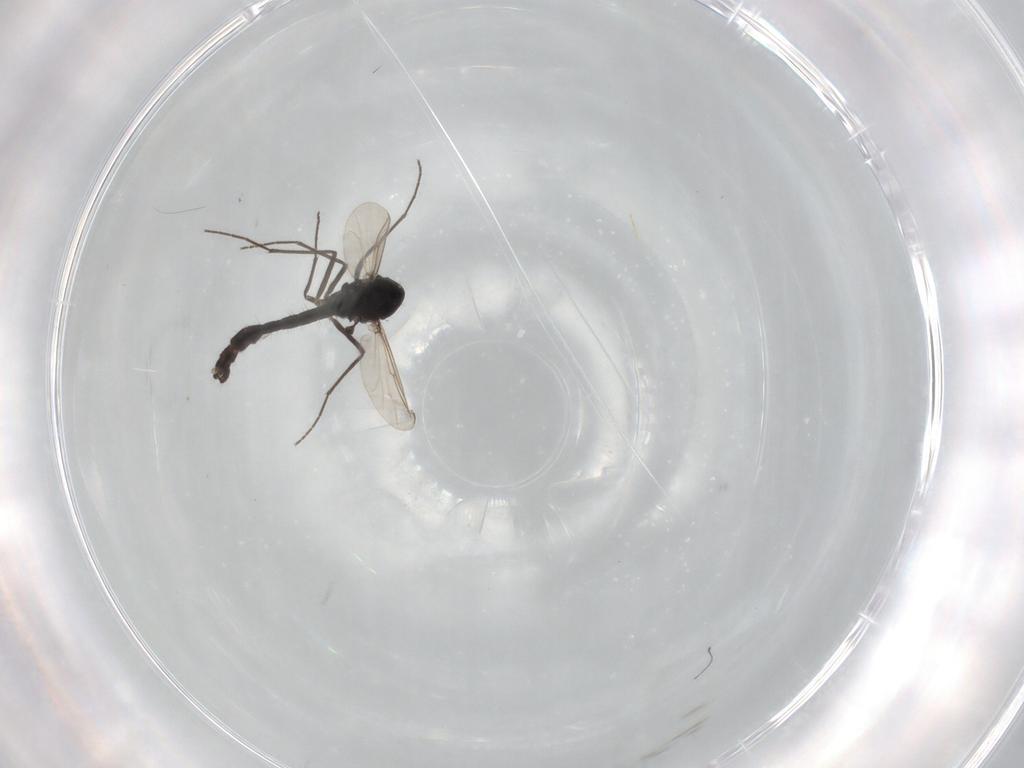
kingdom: Animalia
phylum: Arthropoda
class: Insecta
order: Diptera
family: Chironomidae
